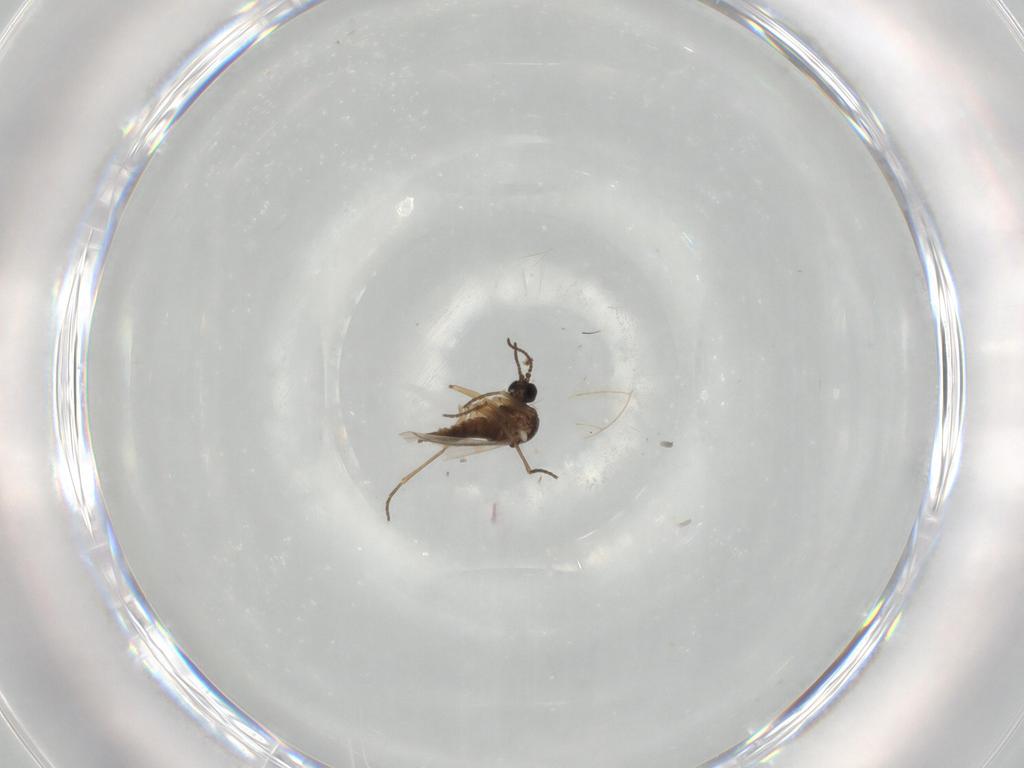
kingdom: Animalia
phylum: Arthropoda
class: Insecta
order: Diptera
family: Sciaridae
